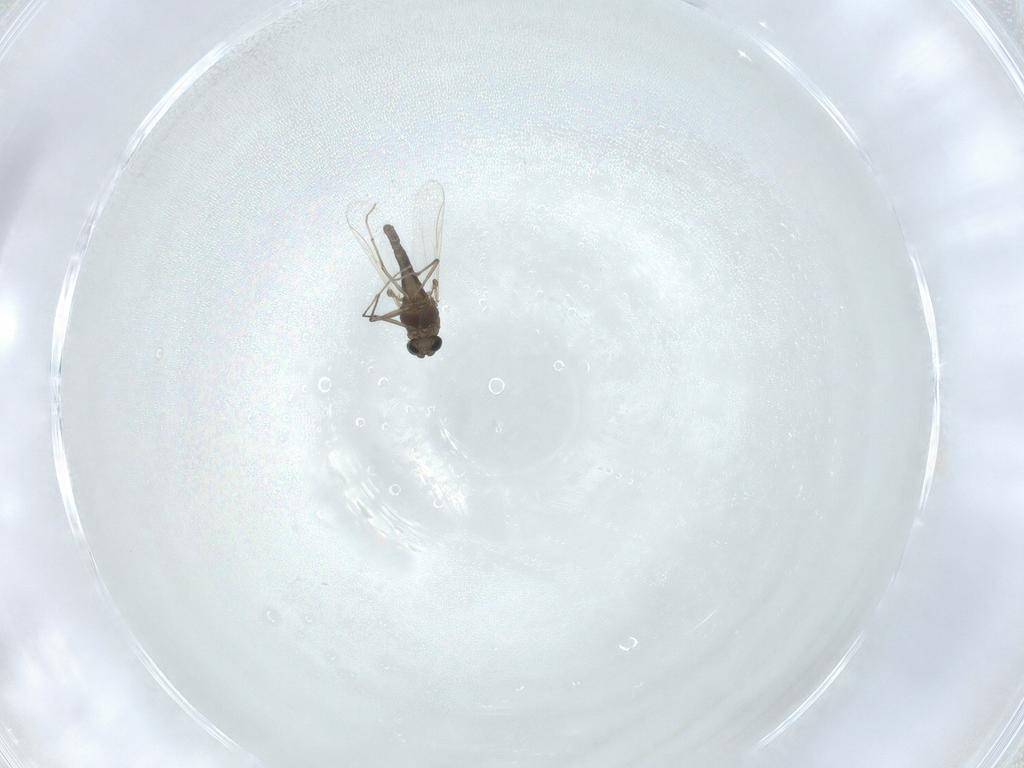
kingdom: Animalia
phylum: Arthropoda
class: Insecta
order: Diptera
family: Chironomidae
